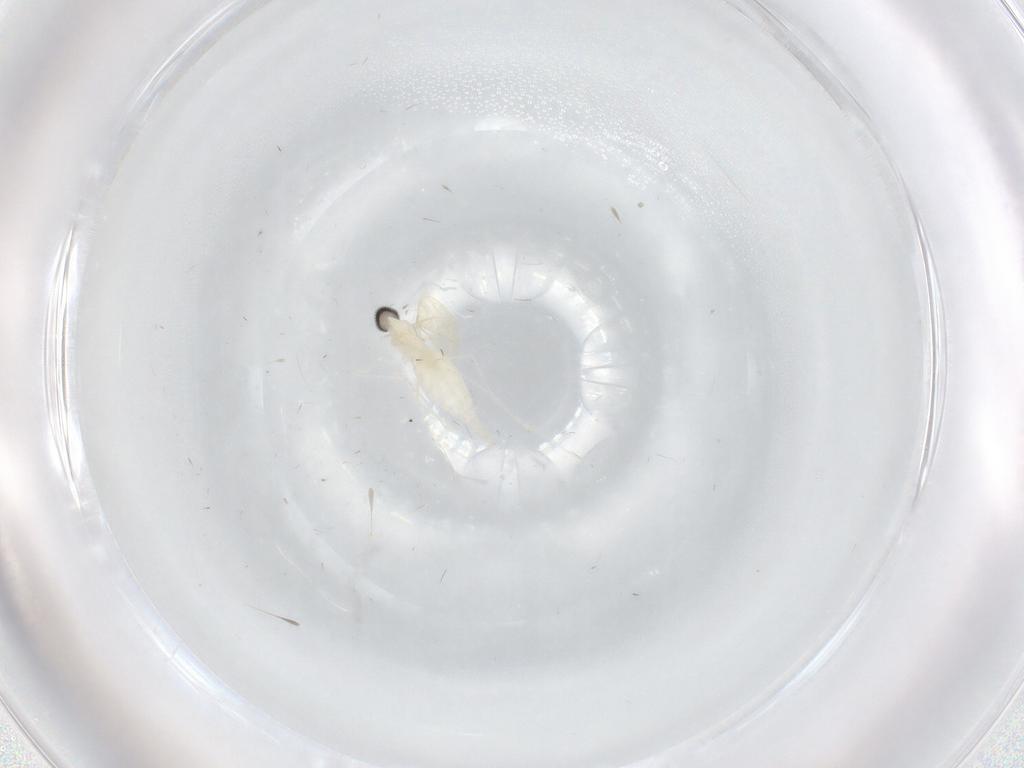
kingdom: Animalia
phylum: Arthropoda
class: Insecta
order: Diptera
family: Cecidomyiidae
